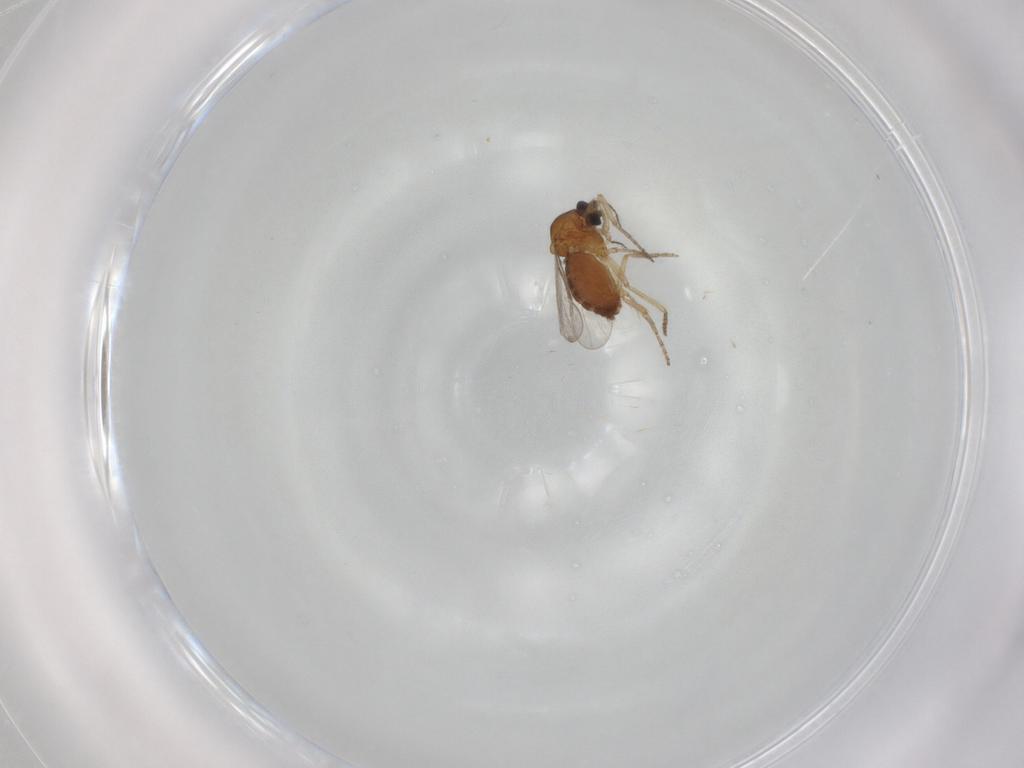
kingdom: Animalia
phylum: Arthropoda
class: Insecta
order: Diptera
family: Ceratopogonidae
